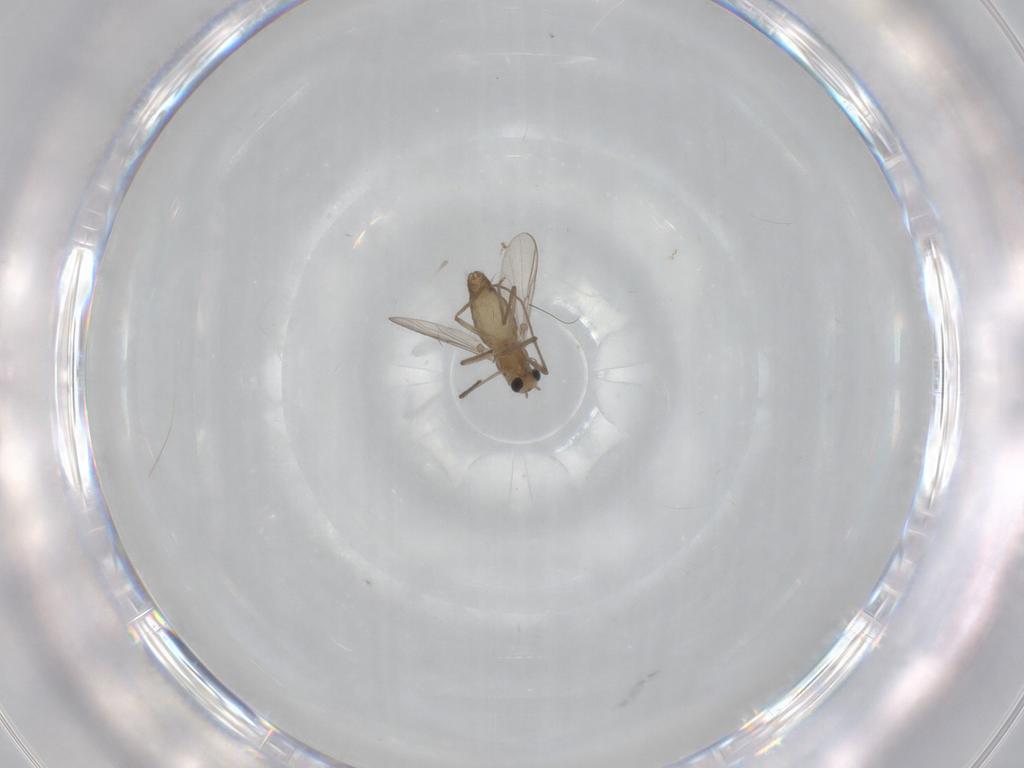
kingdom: Animalia
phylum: Arthropoda
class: Insecta
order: Diptera
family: Chironomidae
